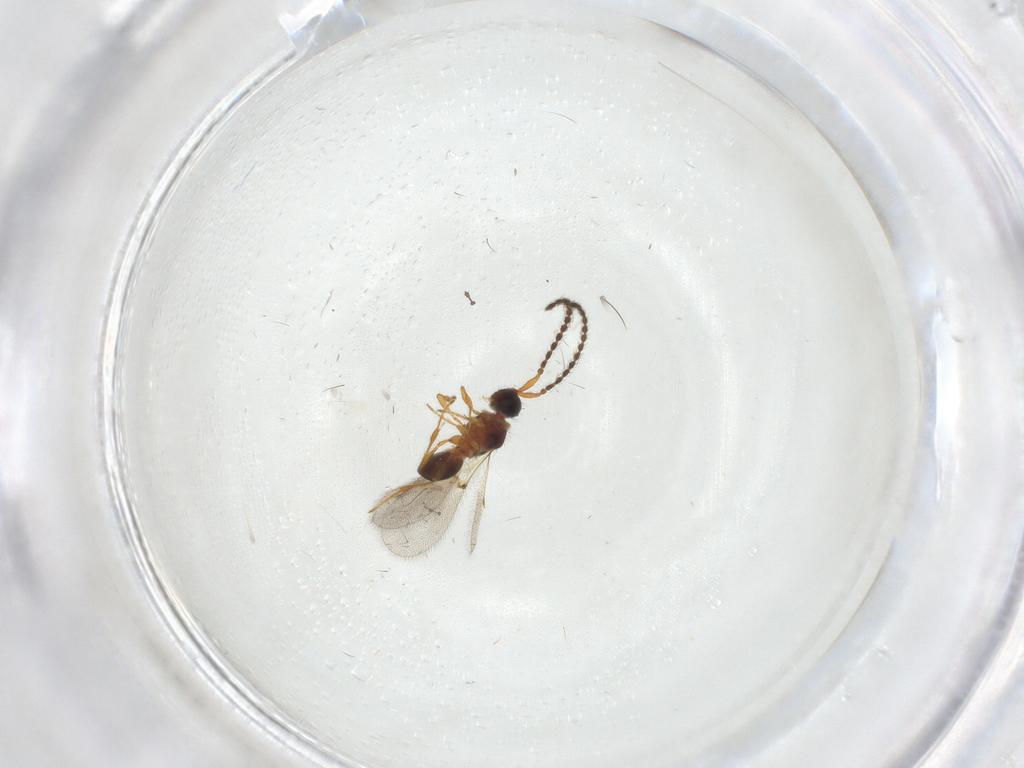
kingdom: Animalia
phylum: Arthropoda
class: Insecta
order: Hymenoptera
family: Diapriidae
